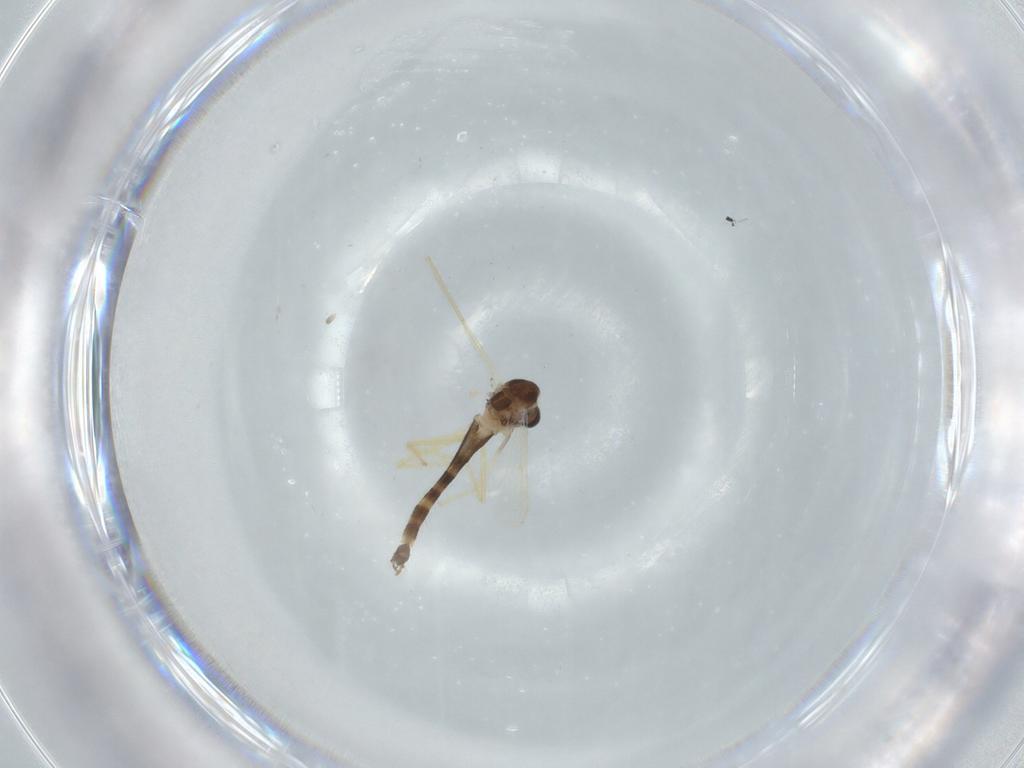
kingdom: Animalia
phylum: Arthropoda
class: Insecta
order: Diptera
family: Chironomidae
